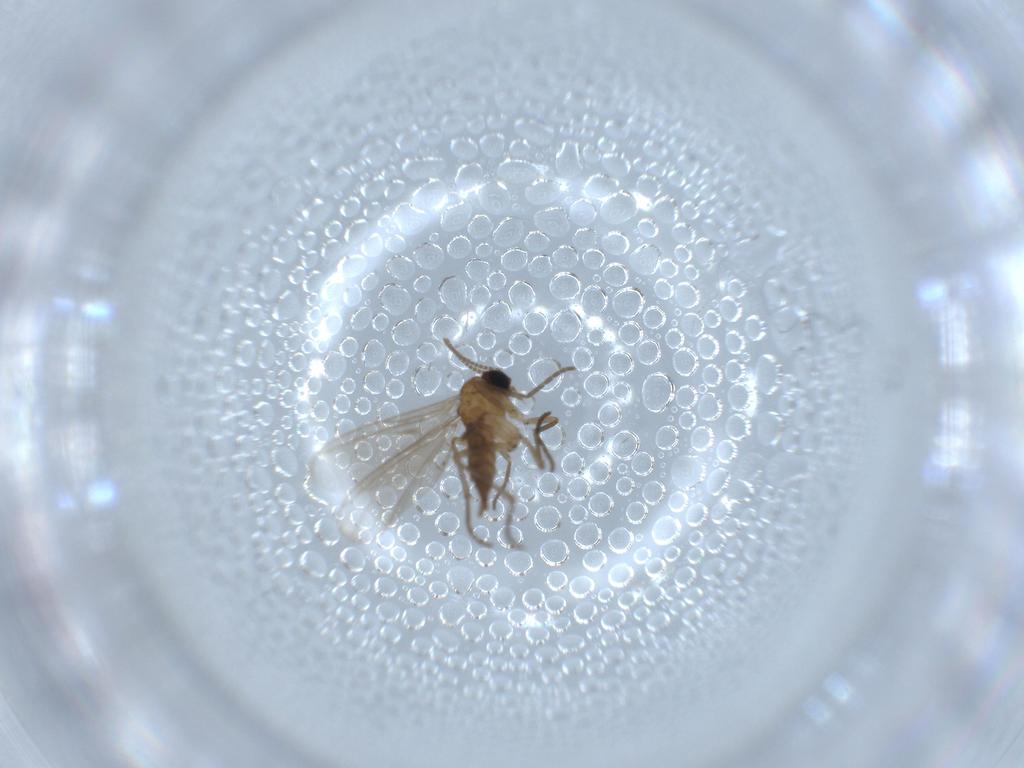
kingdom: Animalia
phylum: Arthropoda
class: Insecta
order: Diptera
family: Sciaridae
